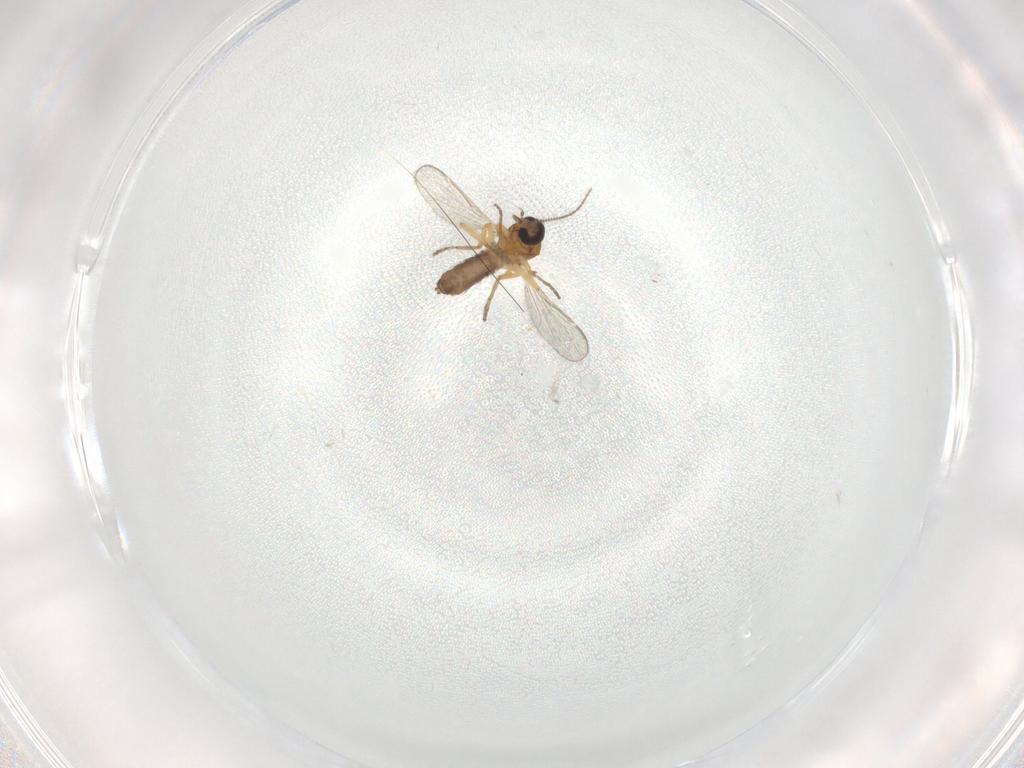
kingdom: Animalia
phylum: Arthropoda
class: Insecta
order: Diptera
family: Ceratopogonidae
